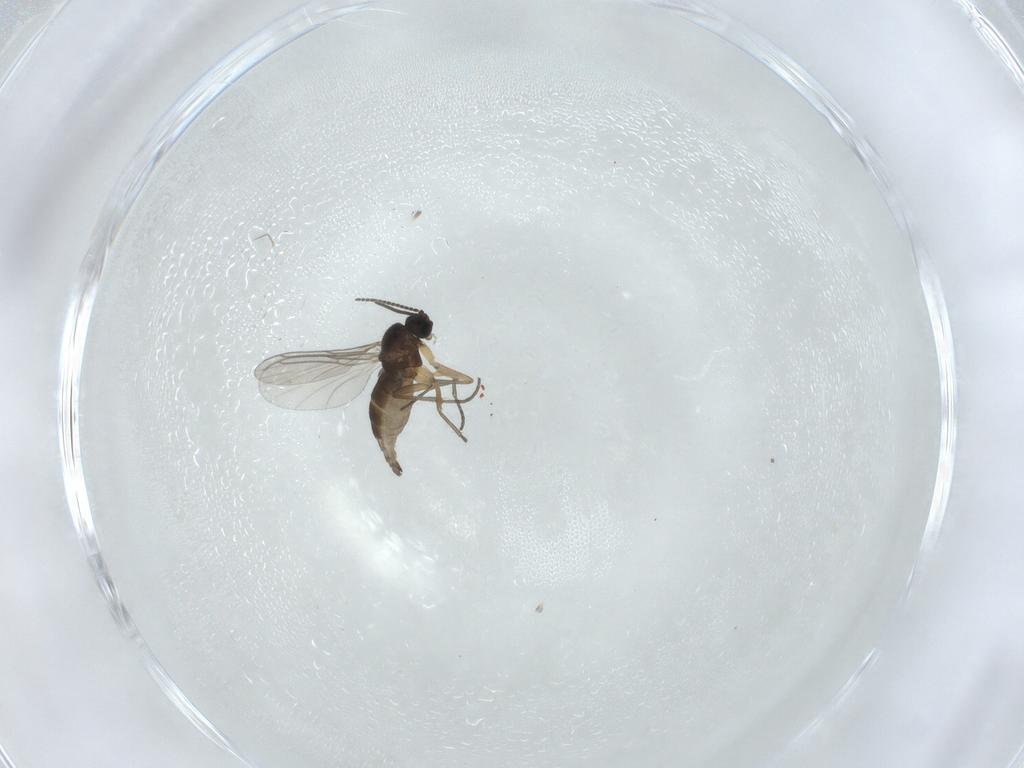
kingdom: Animalia
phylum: Arthropoda
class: Insecta
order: Diptera
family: Sciaridae
